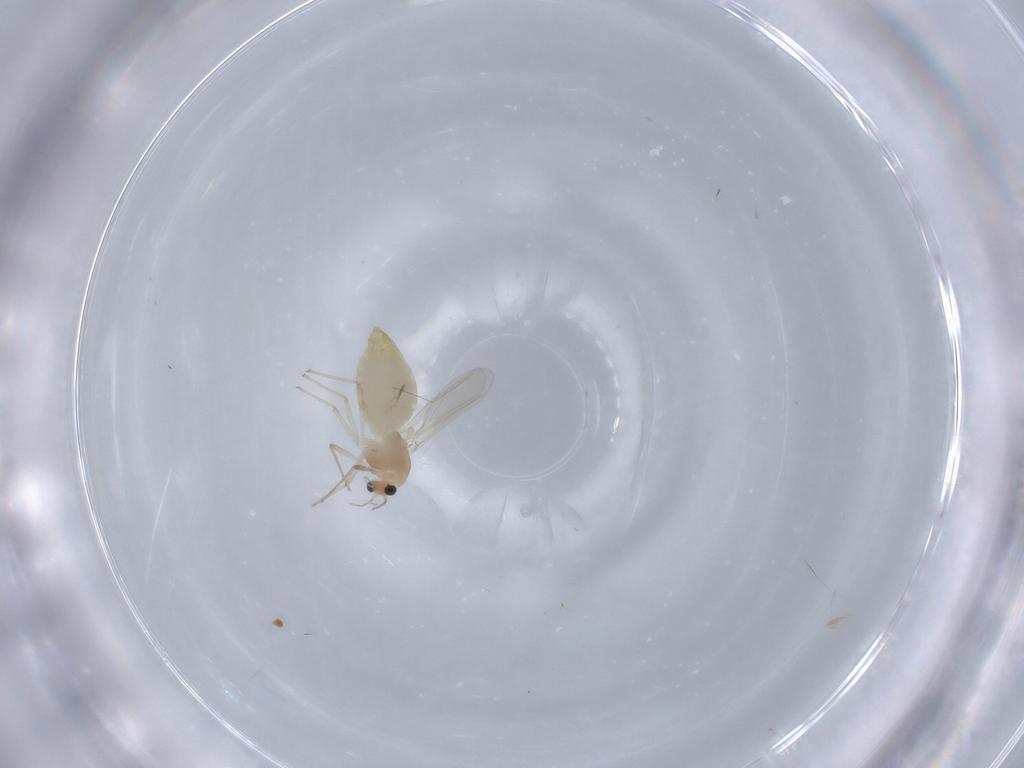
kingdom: Animalia
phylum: Arthropoda
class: Insecta
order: Diptera
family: Chironomidae
